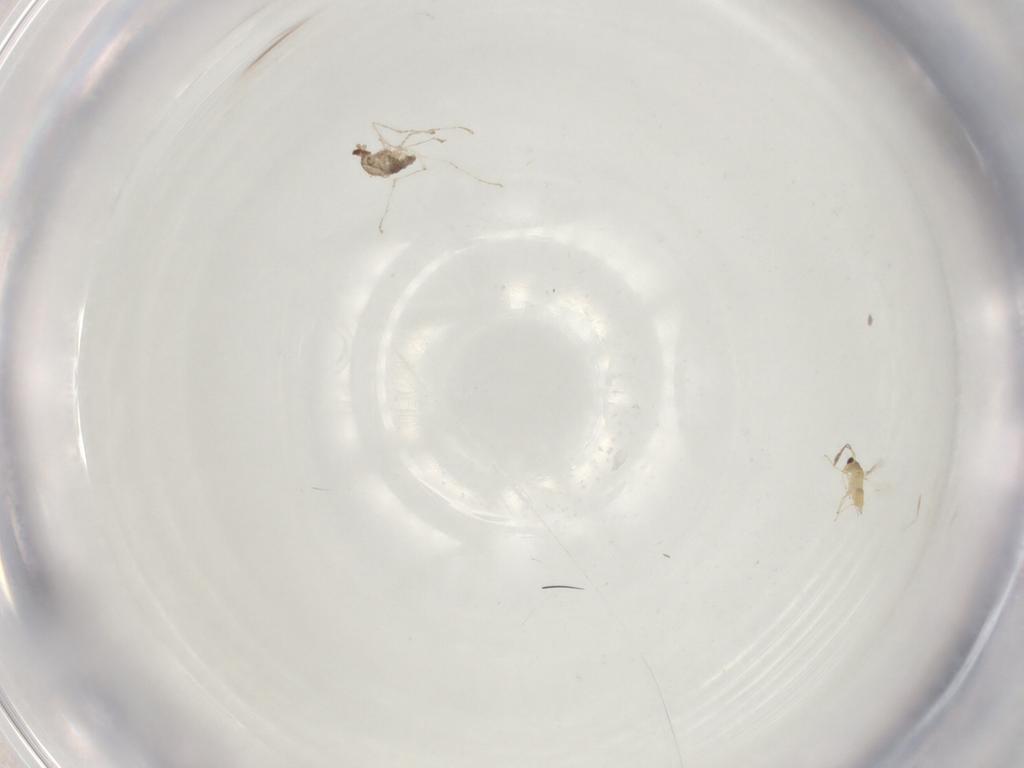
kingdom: Animalia
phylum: Arthropoda
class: Insecta
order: Diptera
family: Cecidomyiidae
